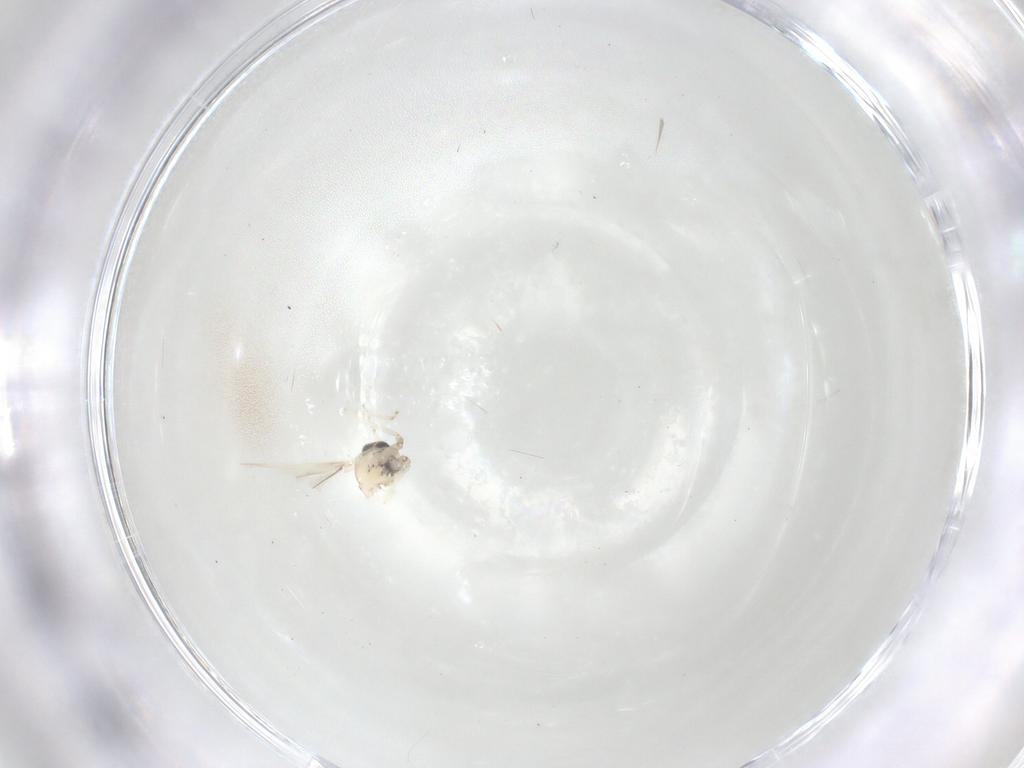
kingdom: Animalia
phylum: Arthropoda
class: Insecta
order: Diptera
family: Cecidomyiidae
